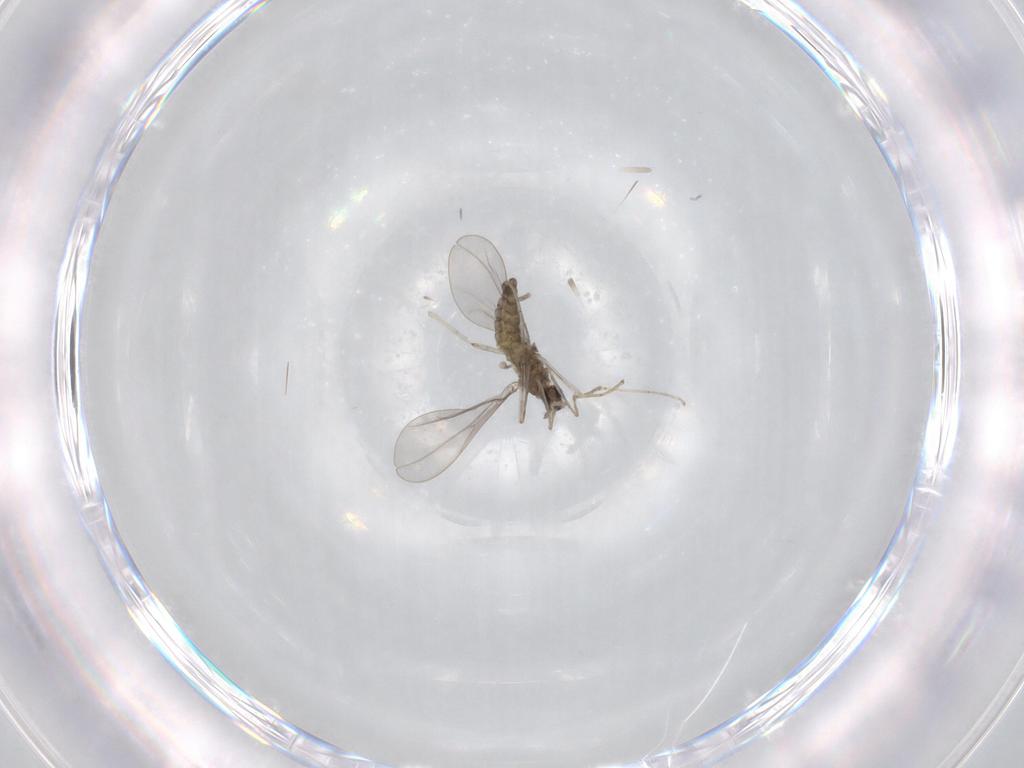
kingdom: Animalia
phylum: Arthropoda
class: Insecta
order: Diptera
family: Cecidomyiidae
